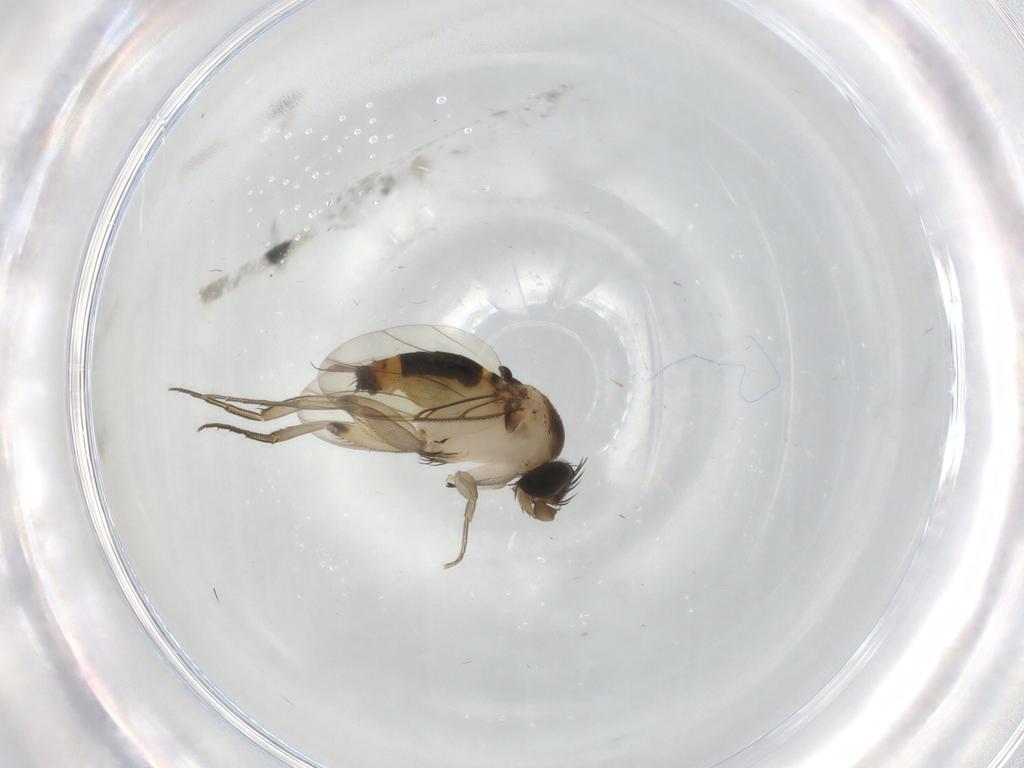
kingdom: Animalia
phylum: Arthropoda
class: Insecta
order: Diptera
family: Phoridae
